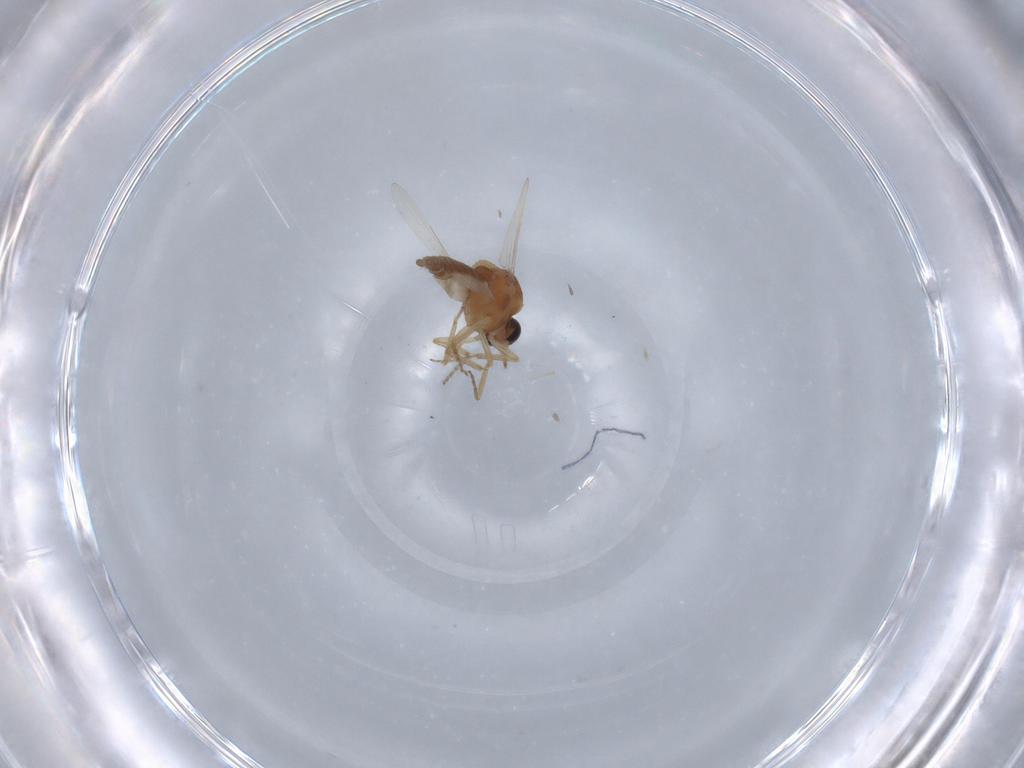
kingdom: Animalia
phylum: Arthropoda
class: Insecta
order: Diptera
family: Ceratopogonidae
